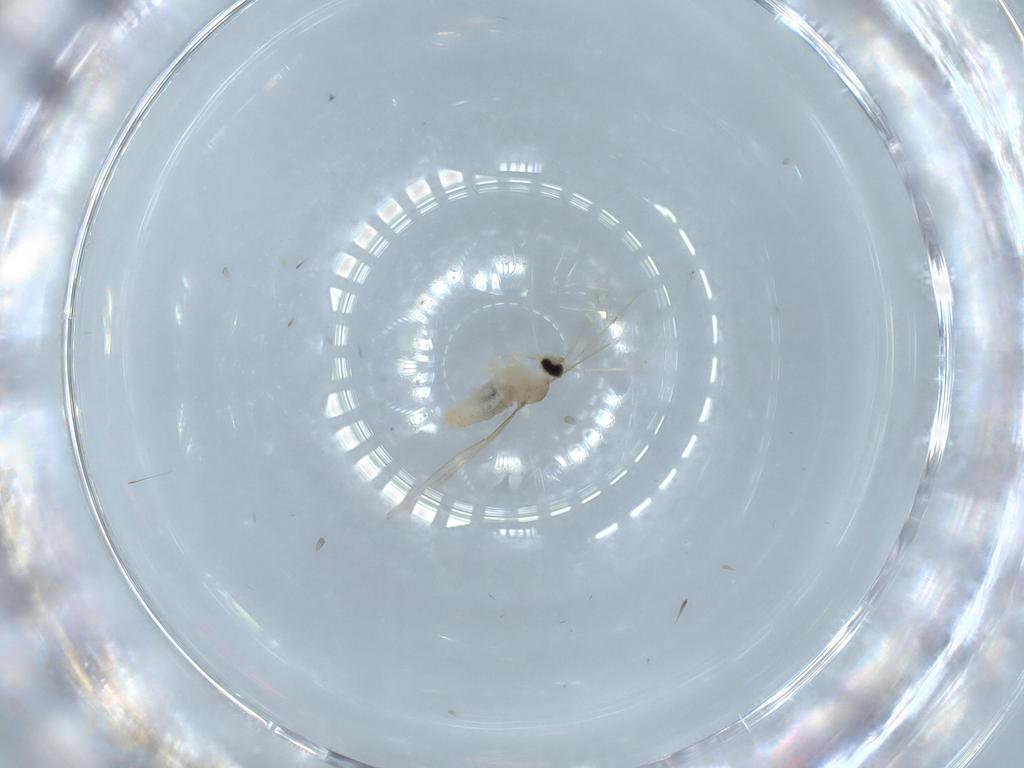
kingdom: Animalia
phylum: Arthropoda
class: Insecta
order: Diptera
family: Cecidomyiidae
